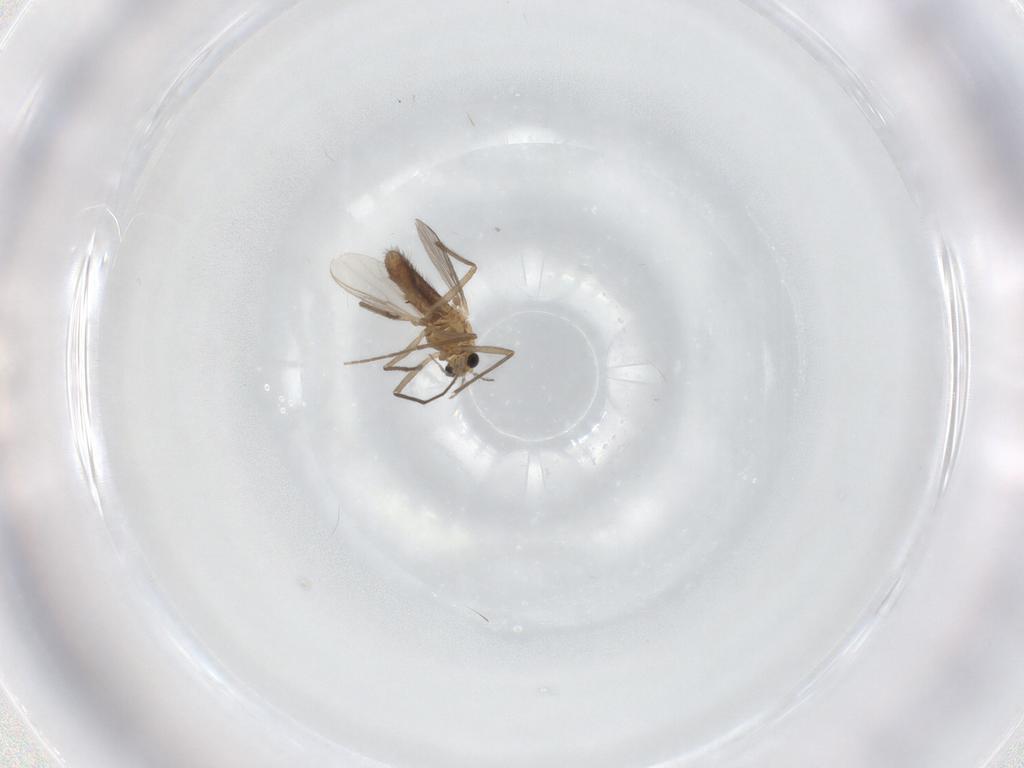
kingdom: Animalia
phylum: Arthropoda
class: Insecta
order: Diptera
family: Chironomidae
